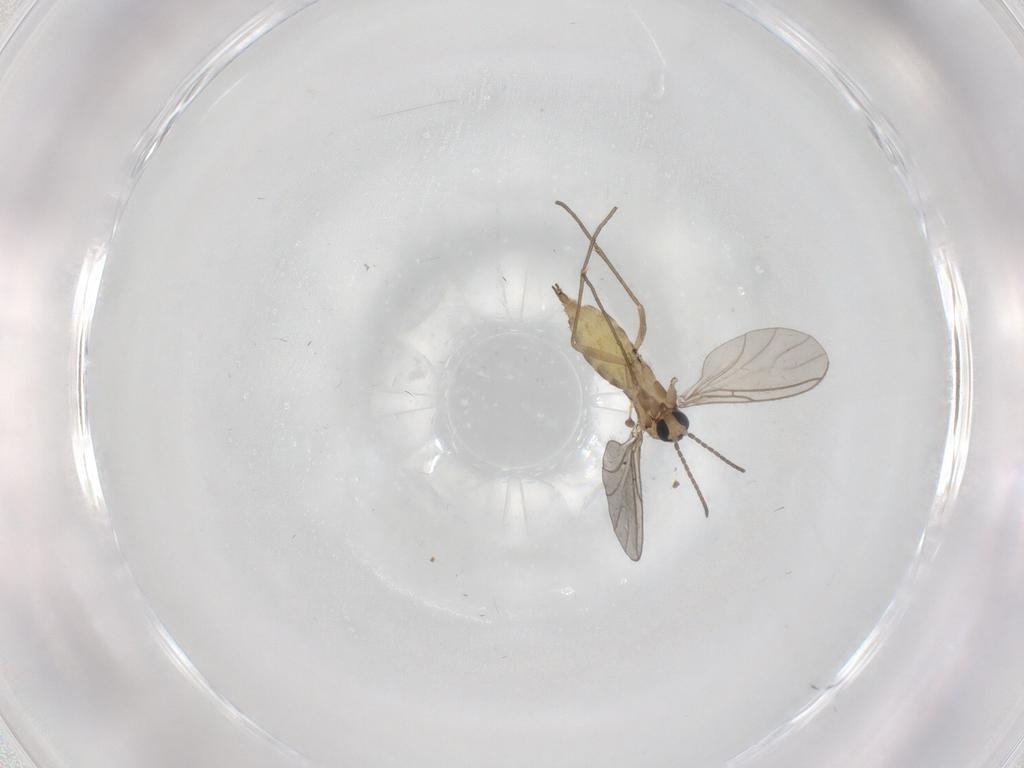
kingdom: Animalia
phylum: Arthropoda
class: Insecta
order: Diptera
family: Sciaridae
